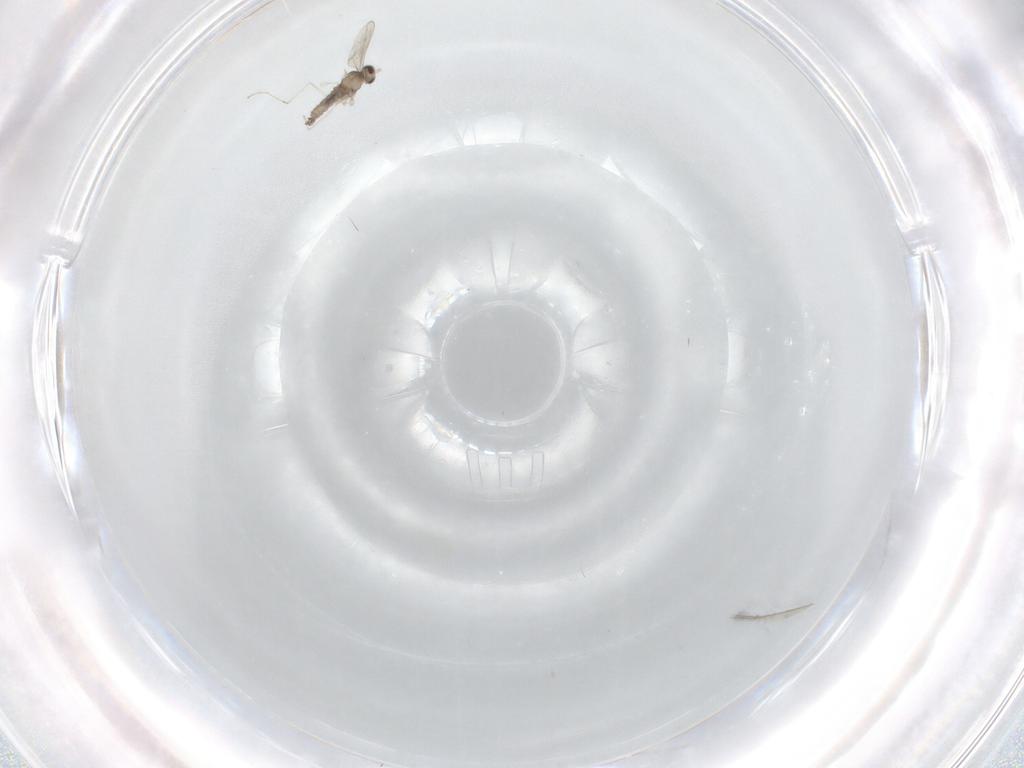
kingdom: Animalia
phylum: Arthropoda
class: Insecta
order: Diptera
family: Cecidomyiidae
